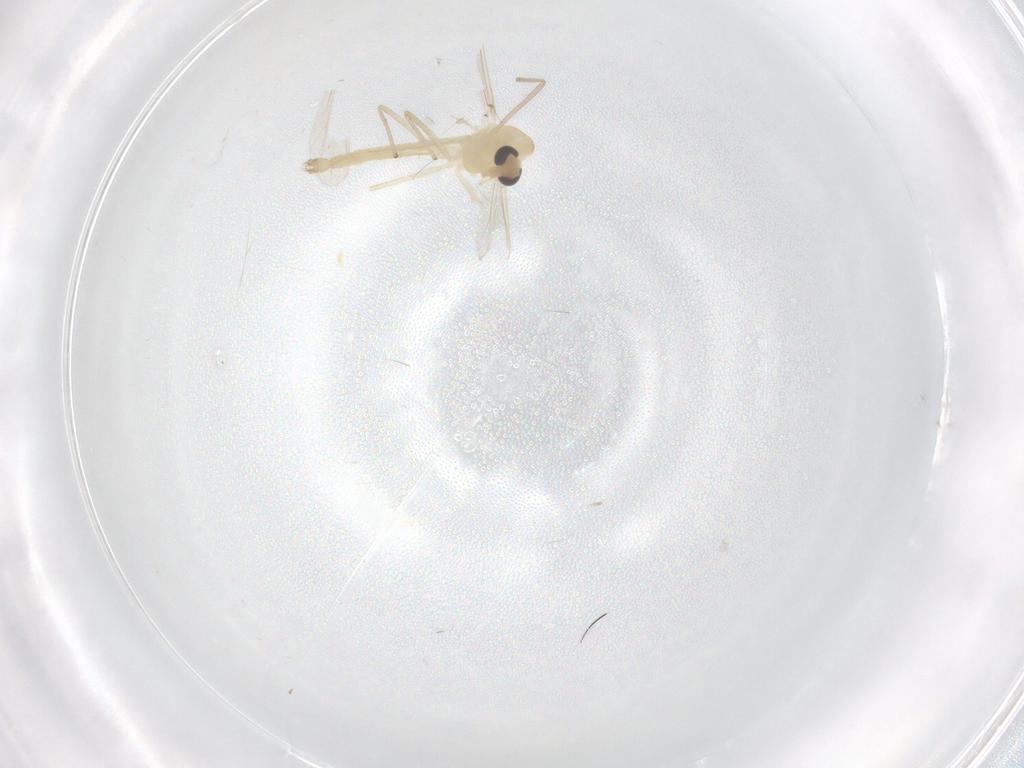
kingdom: Animalia
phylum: Arthropoda
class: Insecta
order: Diptera
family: Chironomidae
